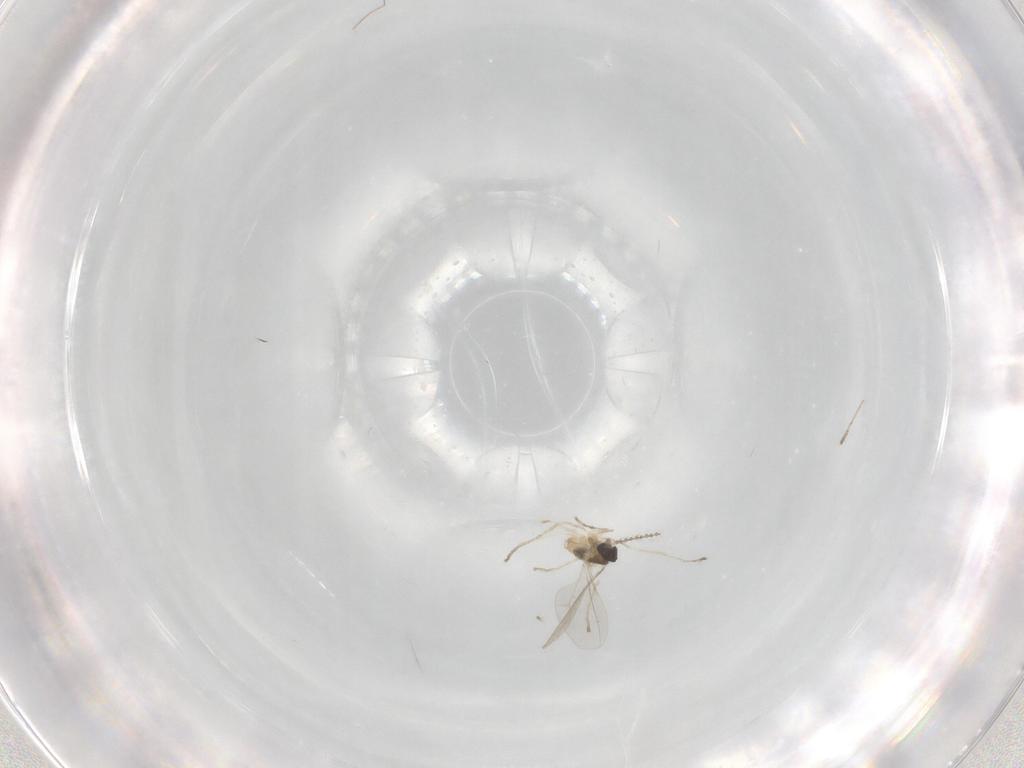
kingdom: Animalia
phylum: Arthropoda
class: Insecta
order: Diptera
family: Cecidomyiidae
